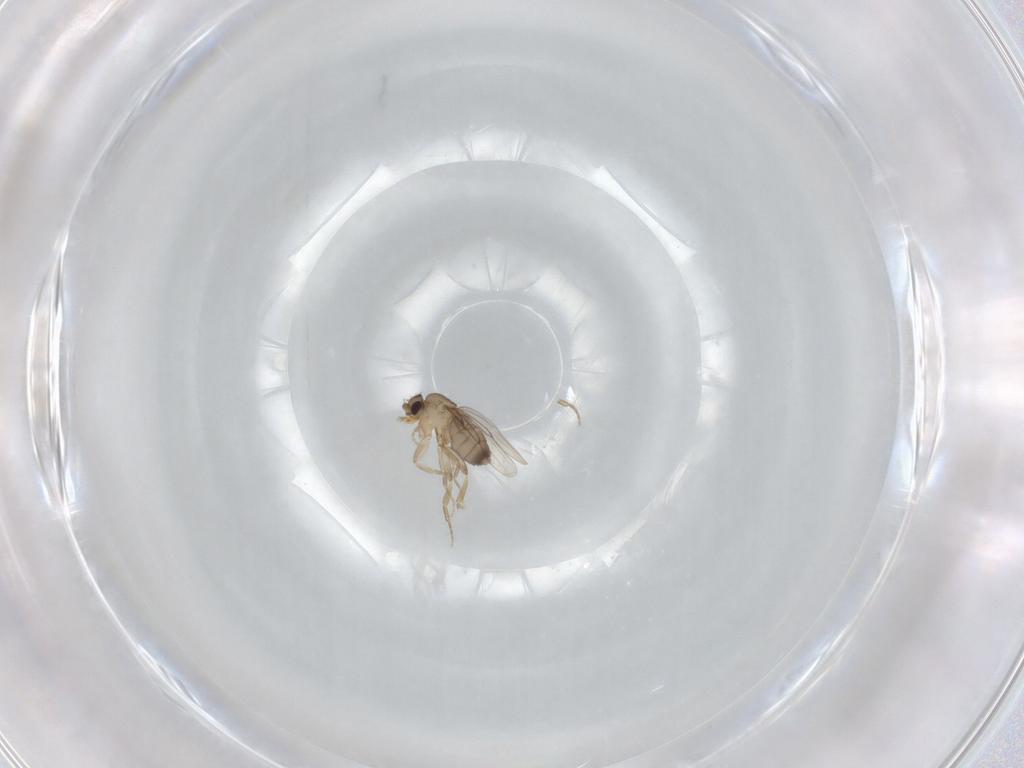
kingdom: Animalia
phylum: Arthropoda
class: Insecta
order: Diptera
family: Phoridae
